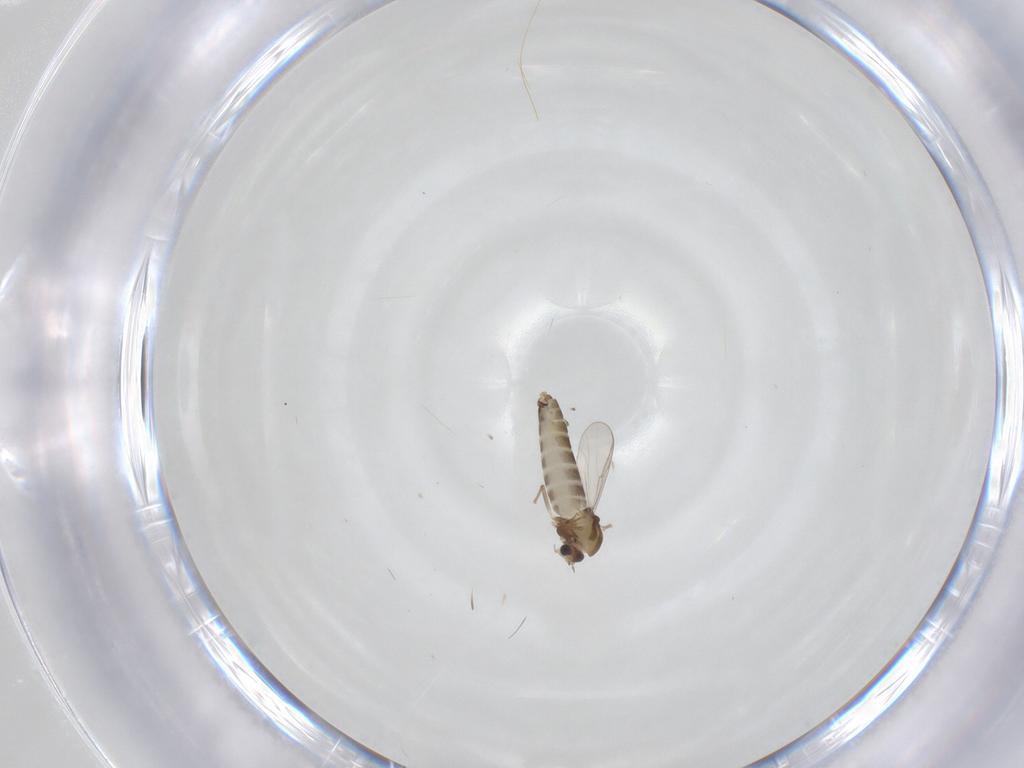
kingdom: Animalia
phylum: Arthropoda
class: Insecta
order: Diptera
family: Chironomidae
